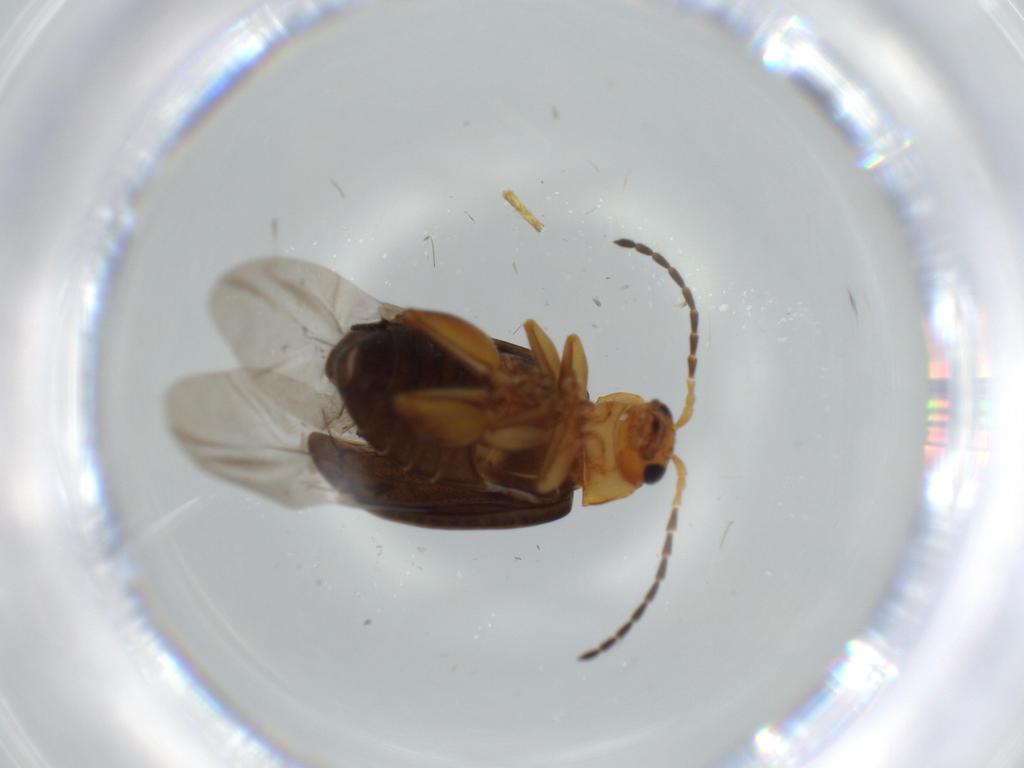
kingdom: Animalia
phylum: Arthropoda
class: Insecta
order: Coleoptera
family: Chrysomelidae
